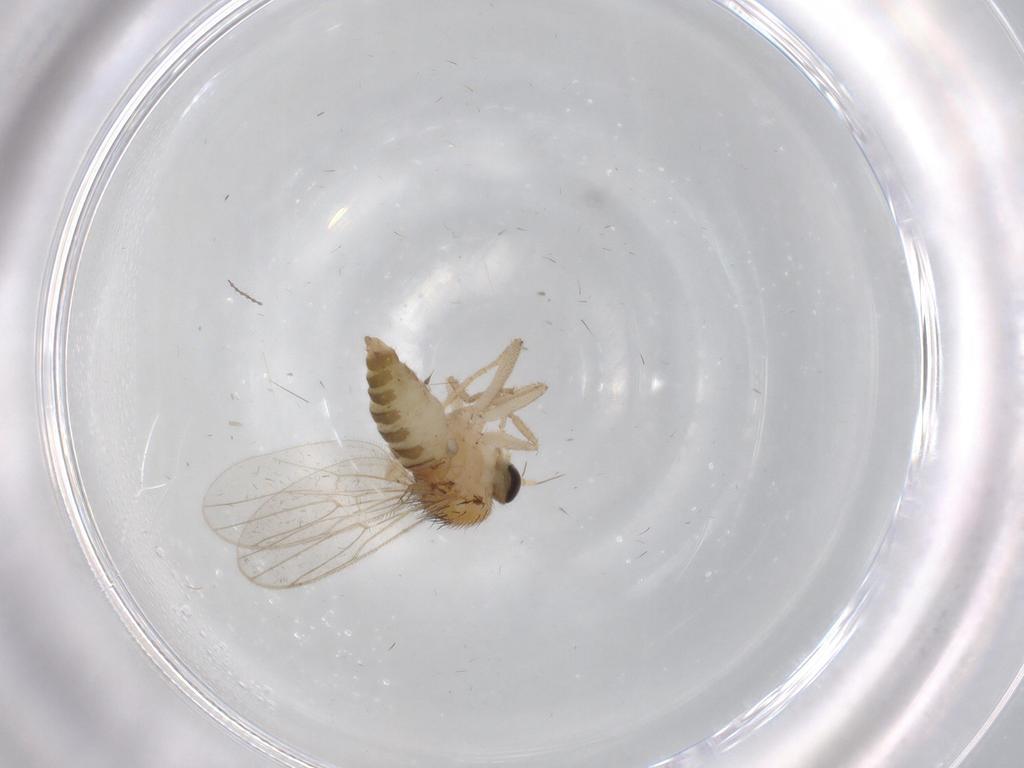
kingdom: Animalia
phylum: Arthropoda
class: Insecta
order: Diptera
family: Hybotidae
